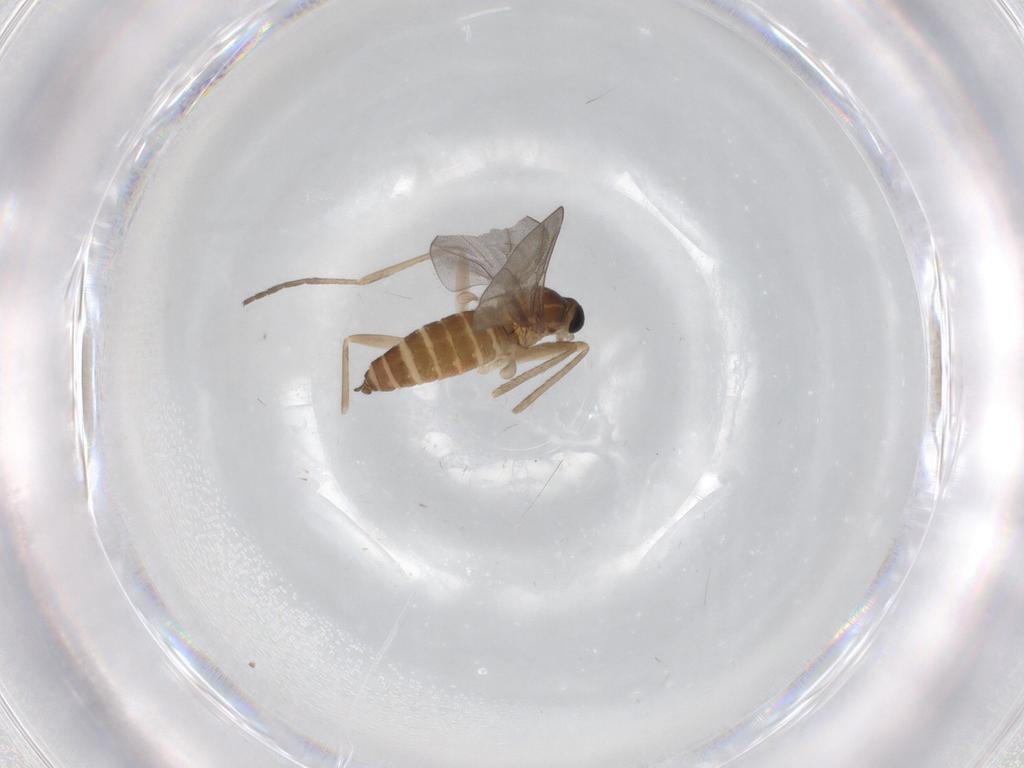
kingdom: Animalia
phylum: Arthropoda
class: Insecta
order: Diptera
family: Cecidomyiidae
